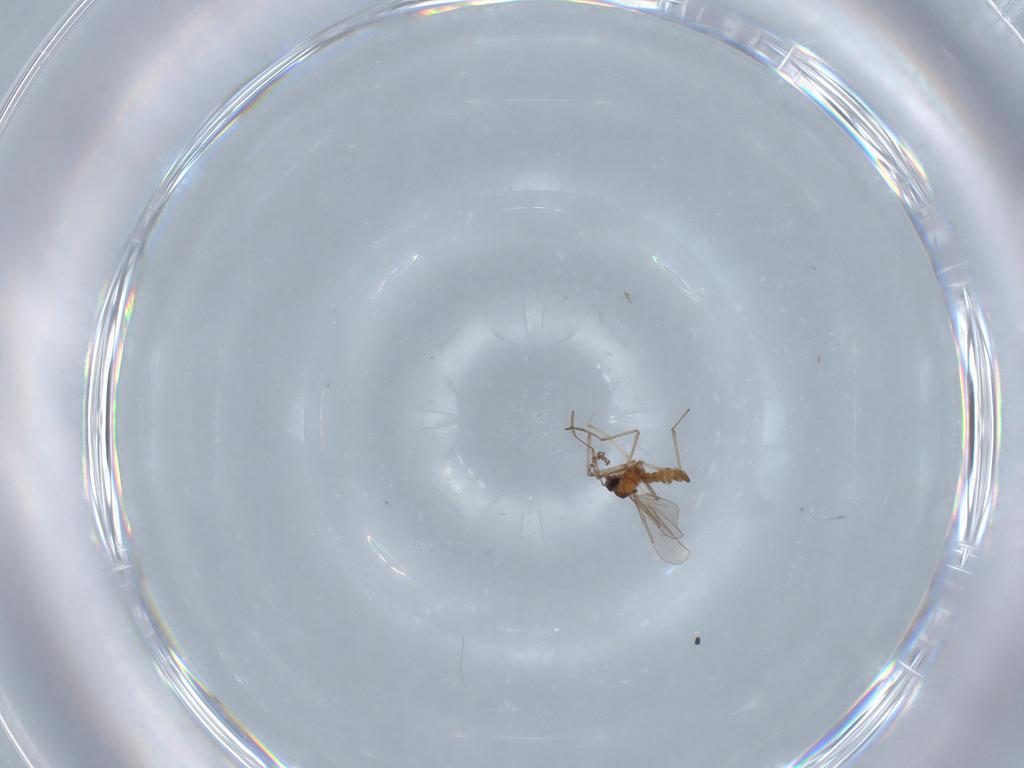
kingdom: Animalia
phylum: Arthropoda
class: Insecta
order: Diptera
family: Cecidomyiidae
